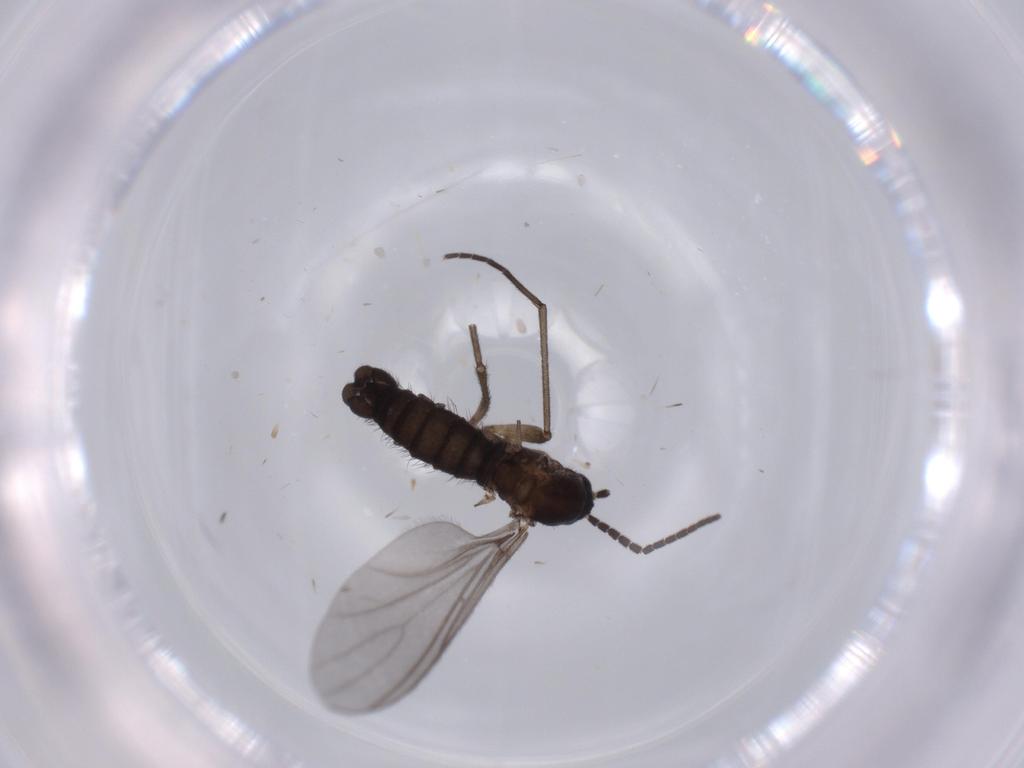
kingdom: Animalia
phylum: Arthropoda
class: Insecta
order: Diptera
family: Sciaridae
